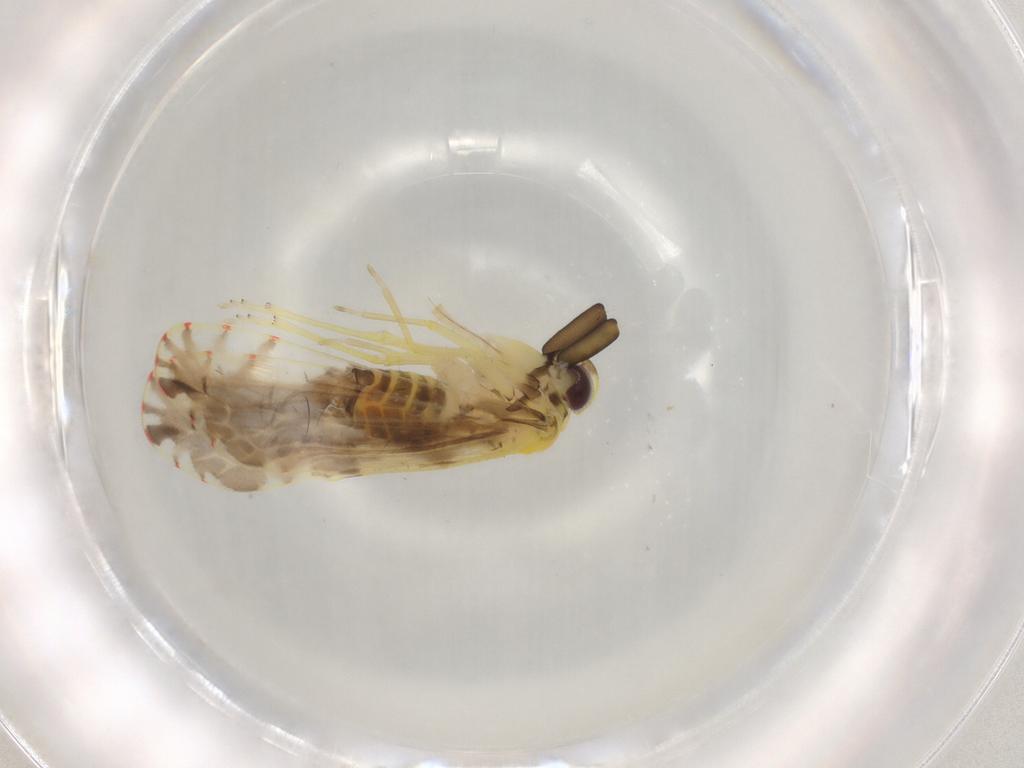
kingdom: Animalia
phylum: Arthropoda
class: Insecta
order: Hemiptera
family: Derbidae
